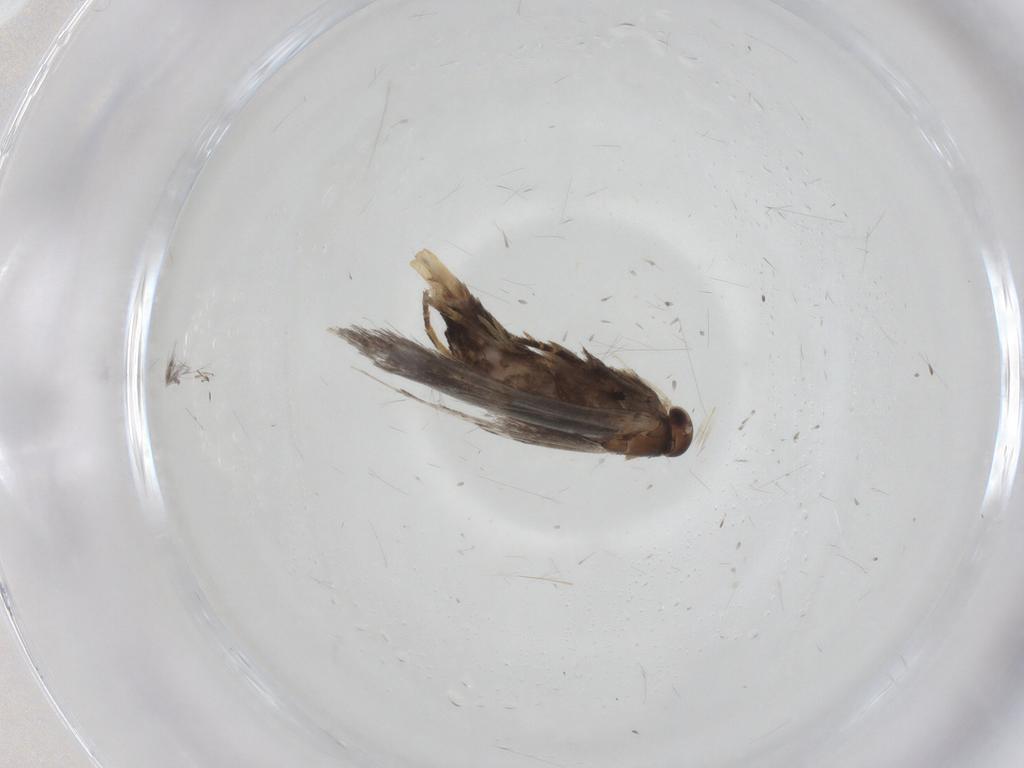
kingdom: Animalia
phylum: Arthropoda
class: Insecta
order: Lepidoptera
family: Elachistidae
